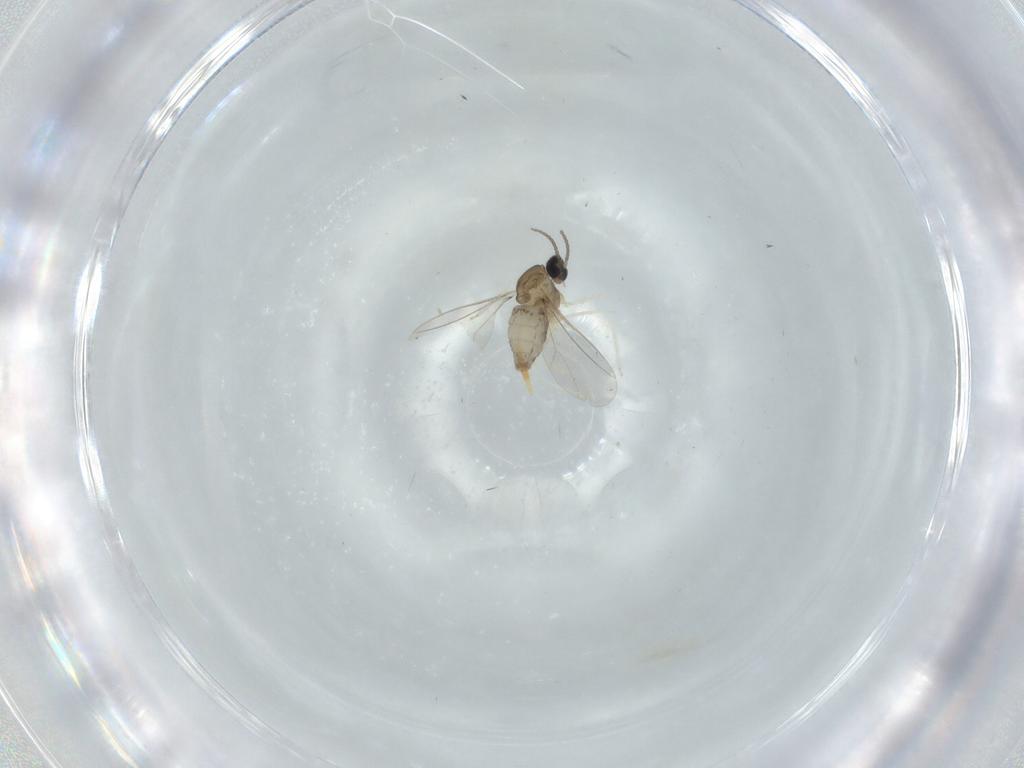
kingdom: Animalia
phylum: Arthropoda
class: Insecta
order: Diptera
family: Cecidomyiidae
